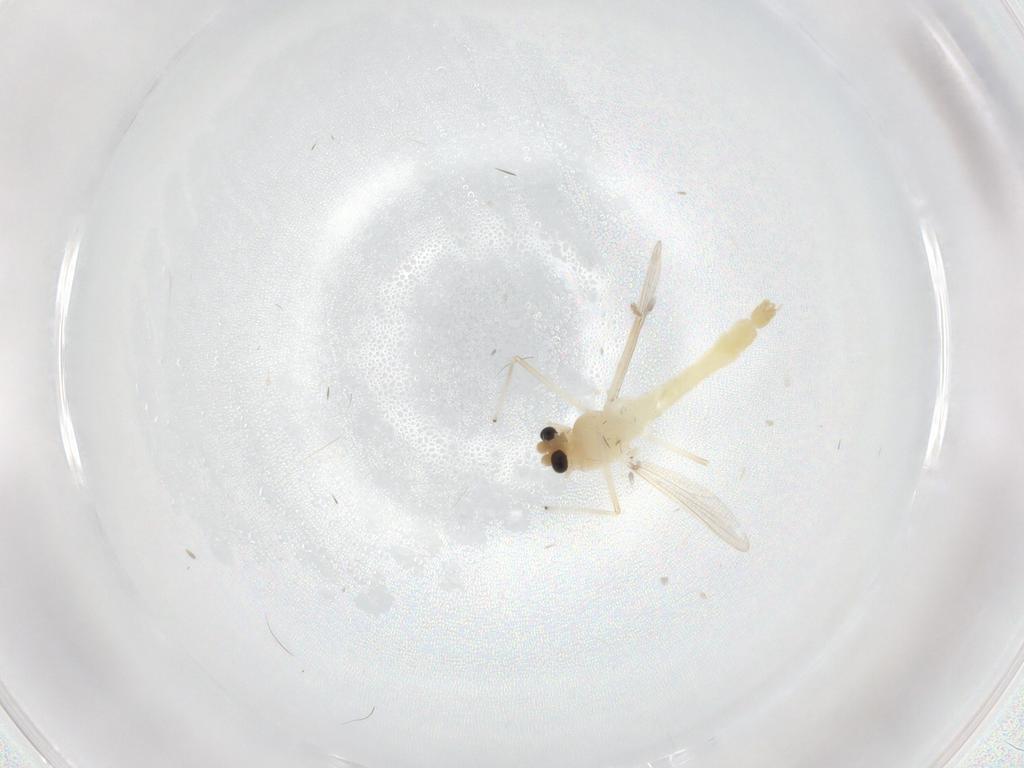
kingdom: Animalia
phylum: Arthropoda
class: Insecta
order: Diptera
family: Chironomidae
